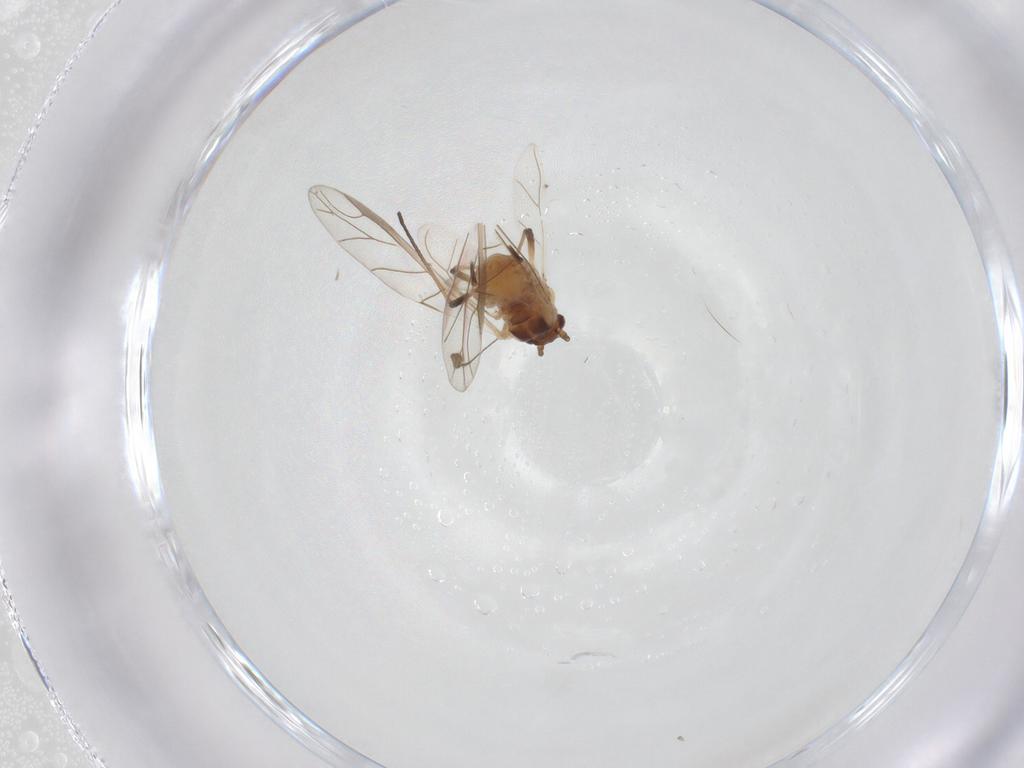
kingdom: Animalia
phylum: Arthropoda
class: Insecta
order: Hemiptera
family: Aphididae
